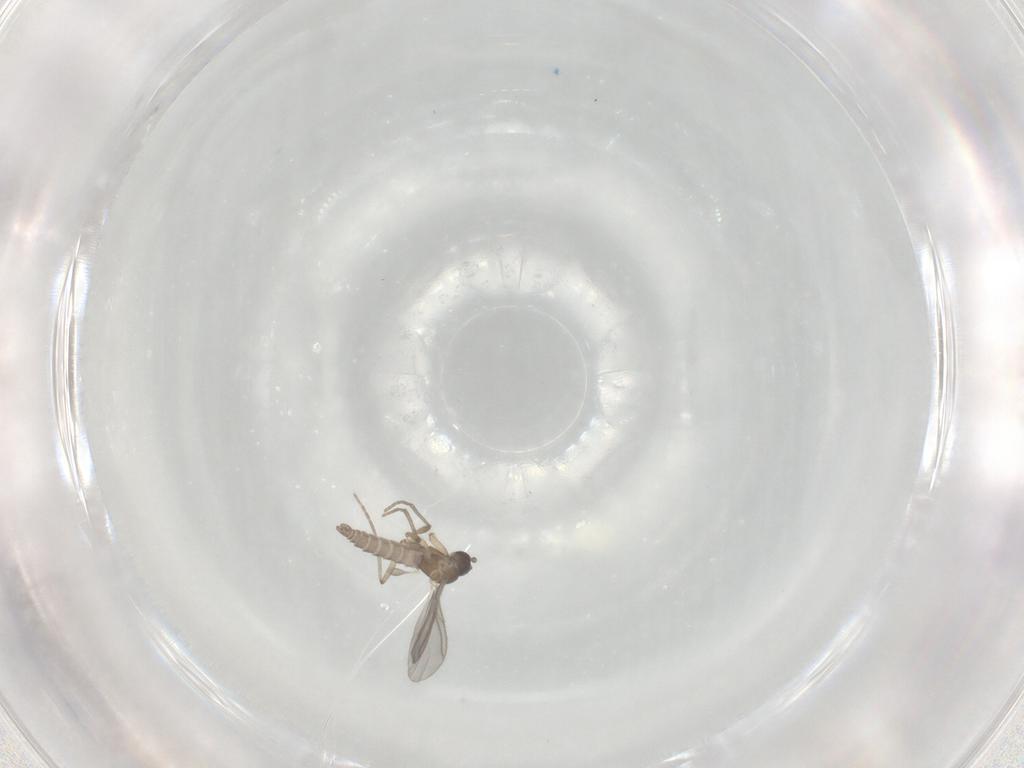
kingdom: Animalia
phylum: Arthropoda
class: Insecta
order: Diptera
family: Sciaridae
